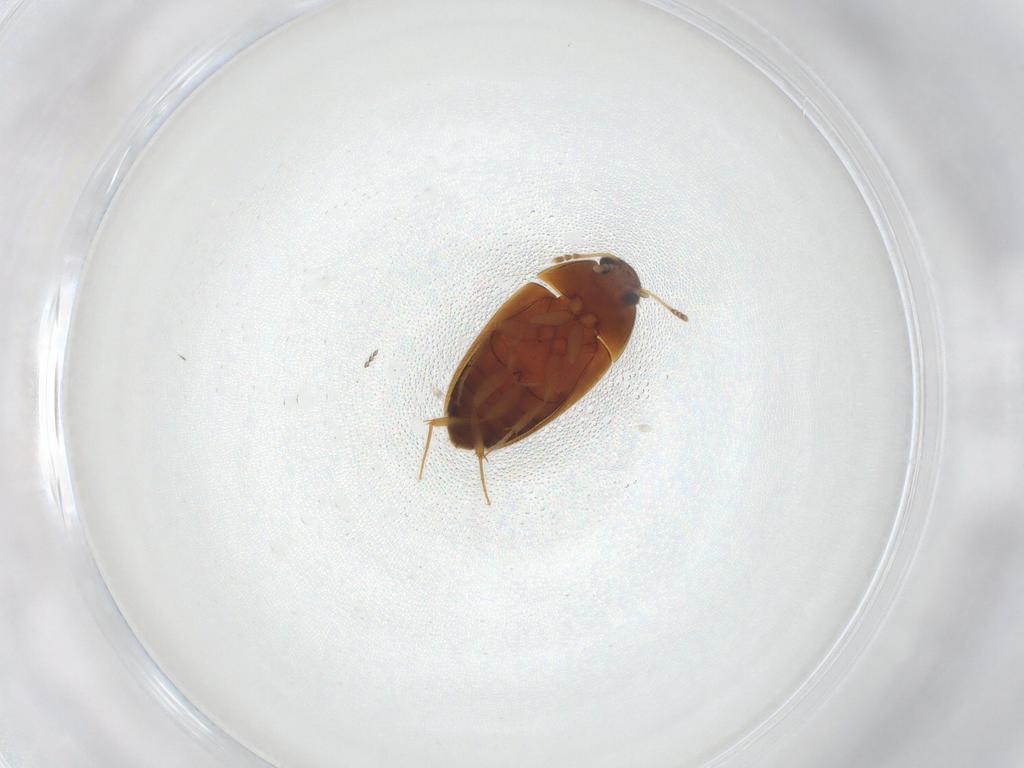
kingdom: Animalia
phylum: Arthropoda
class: Insecta
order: Coleoptera
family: Mycetophagidae
